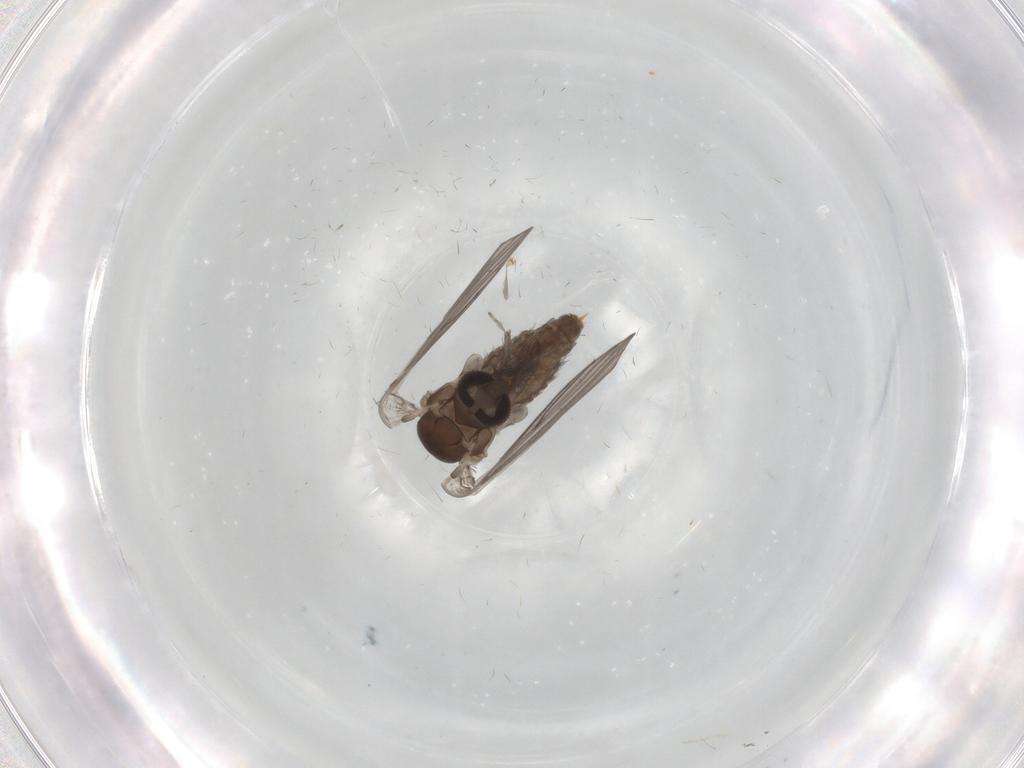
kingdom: Animalia
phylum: Arthropoda
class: Insecta
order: Diptera
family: Psychodidae
